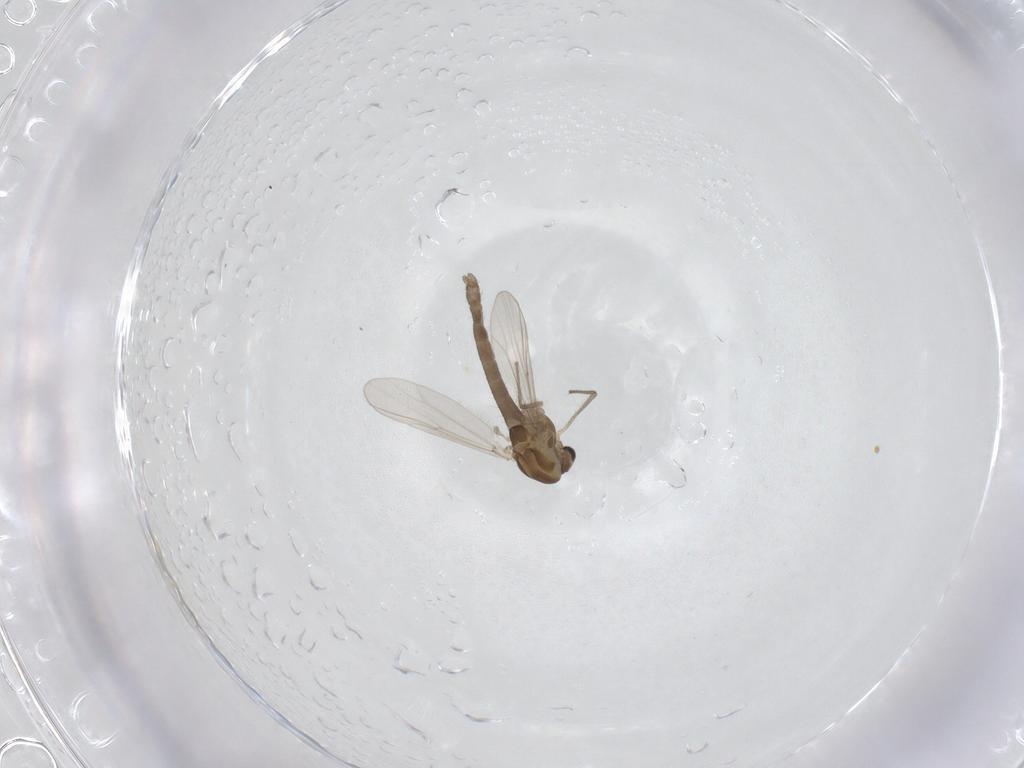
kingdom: Animalia
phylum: Arthropoda
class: Insecta
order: Diptera
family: Chironomidae
